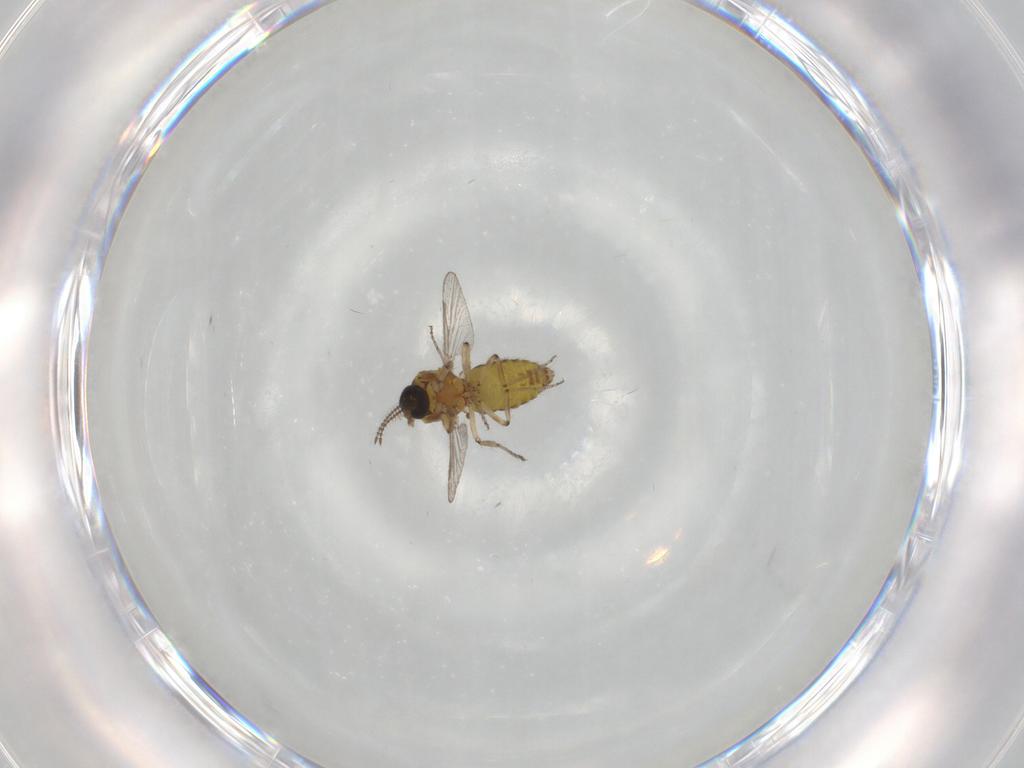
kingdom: Animalia
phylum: Arthropoda
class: Insecta
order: Diptera
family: Ceratopogonidae
